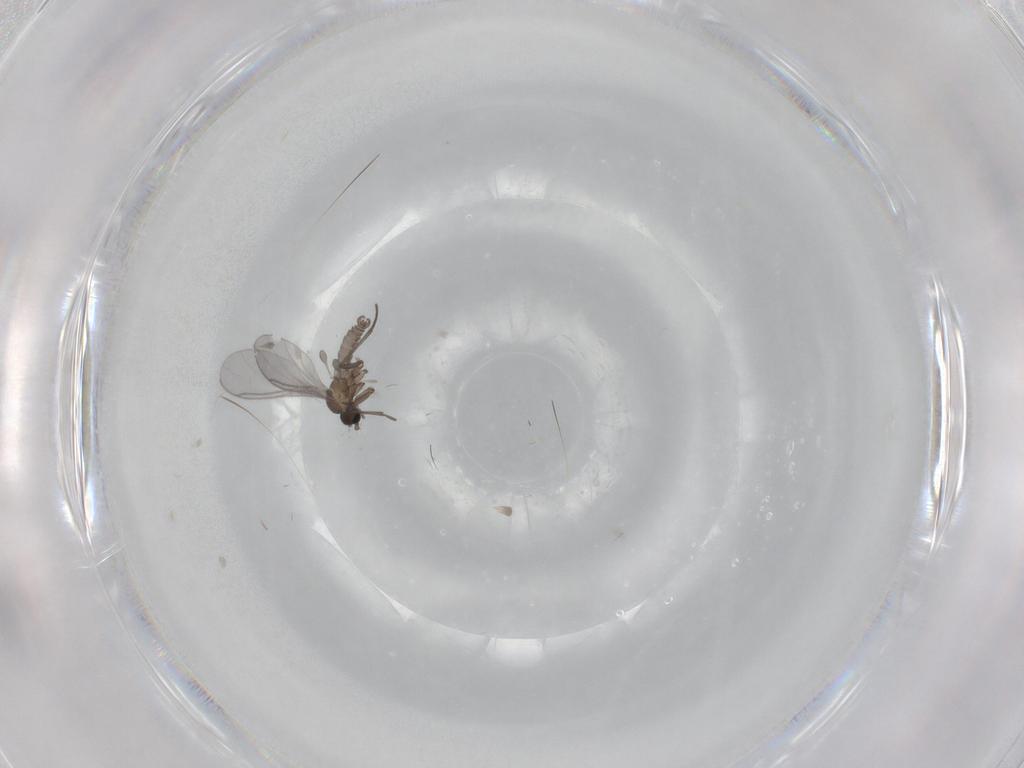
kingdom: Animalia
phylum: Arthropoda
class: Insecta
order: Diptera
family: Sciaridae
